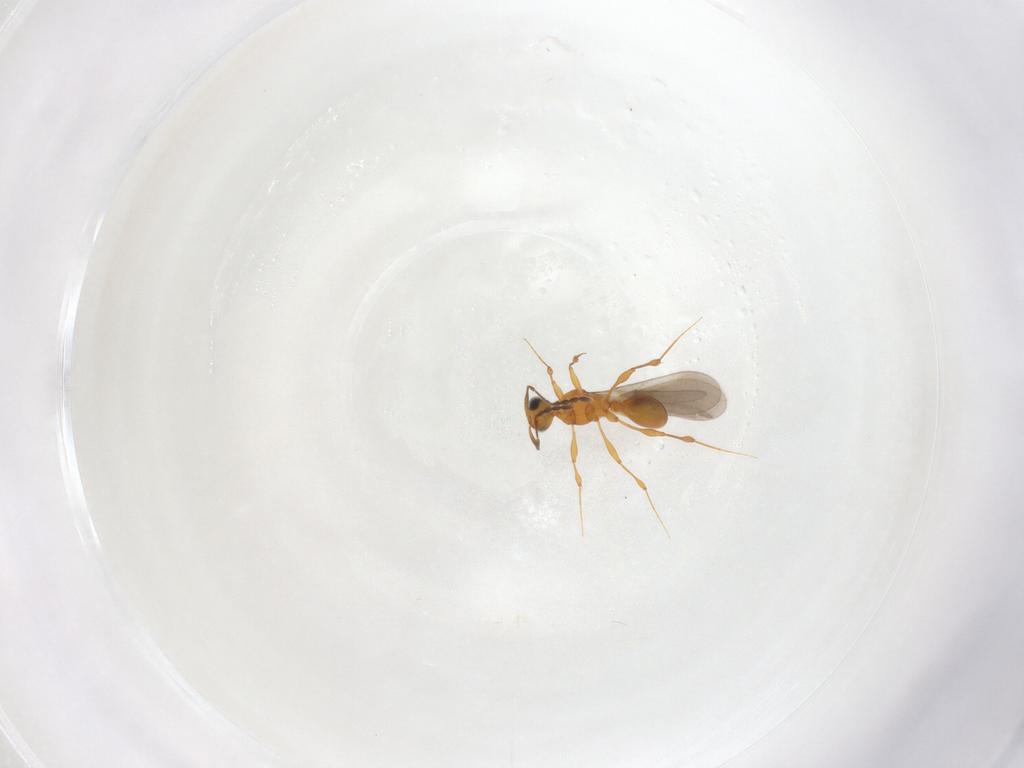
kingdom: Animalia
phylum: Arthropoda
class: Insecta
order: Hymenoptera
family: Platygastridae
